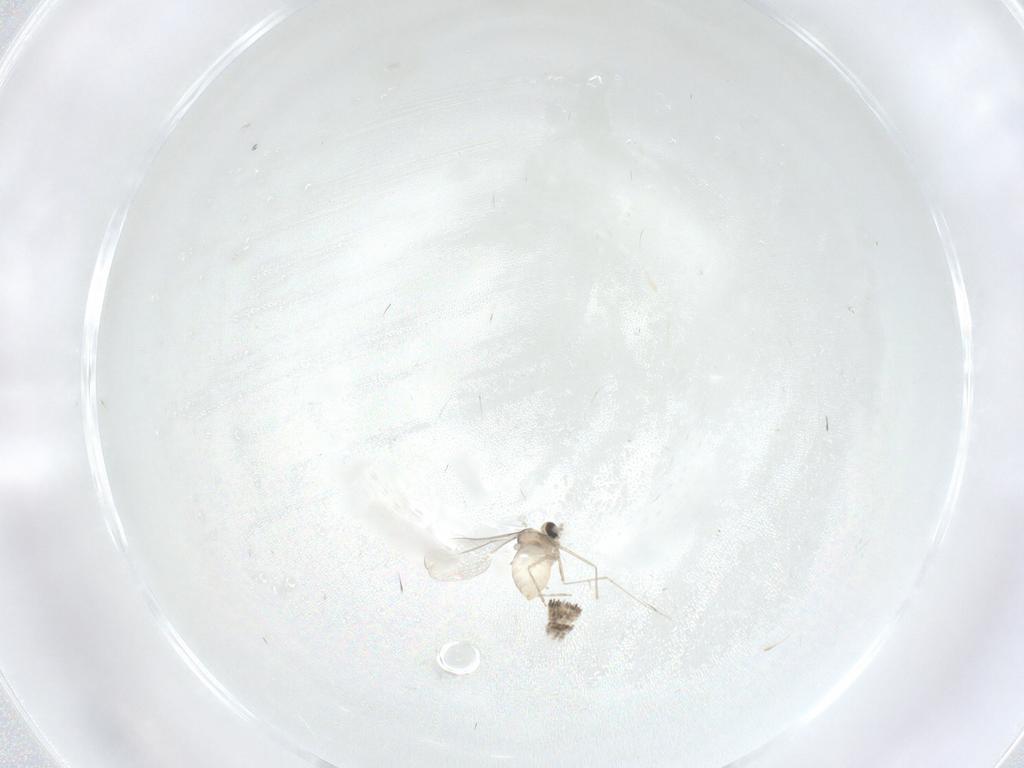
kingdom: Animalia
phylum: Arthropoda
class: Insecta
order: Diptera
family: Cecidomyiidae
